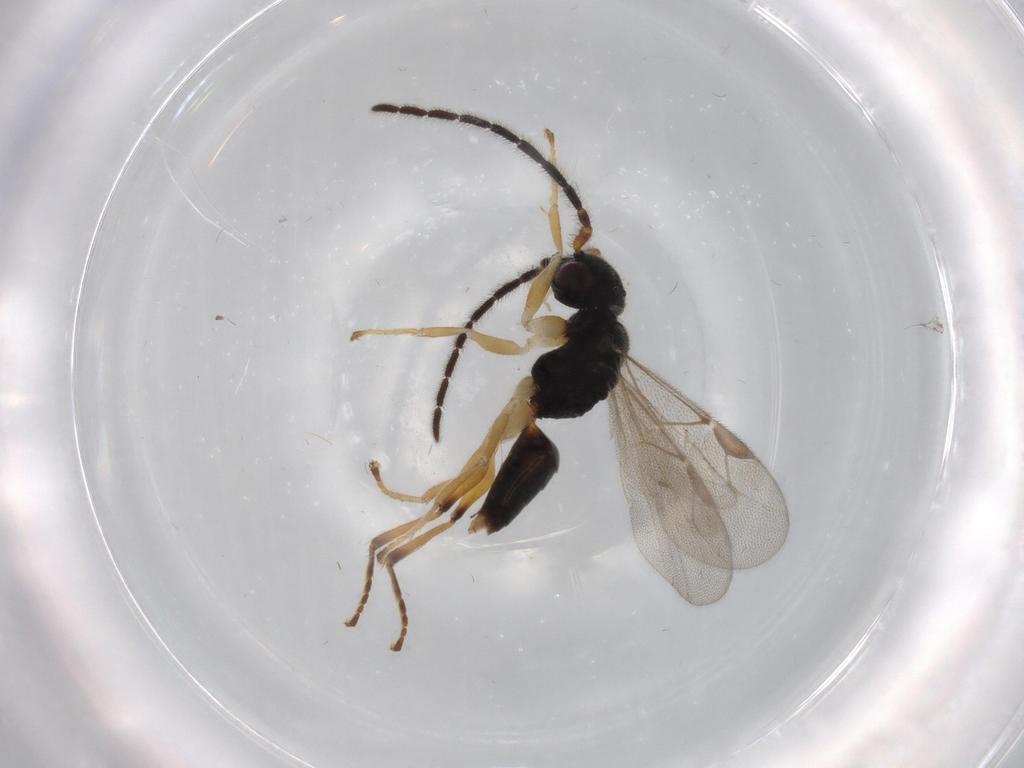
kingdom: Animalia
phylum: Arthropoda
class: Insecta
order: Hymenoptera
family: Dryinidae
